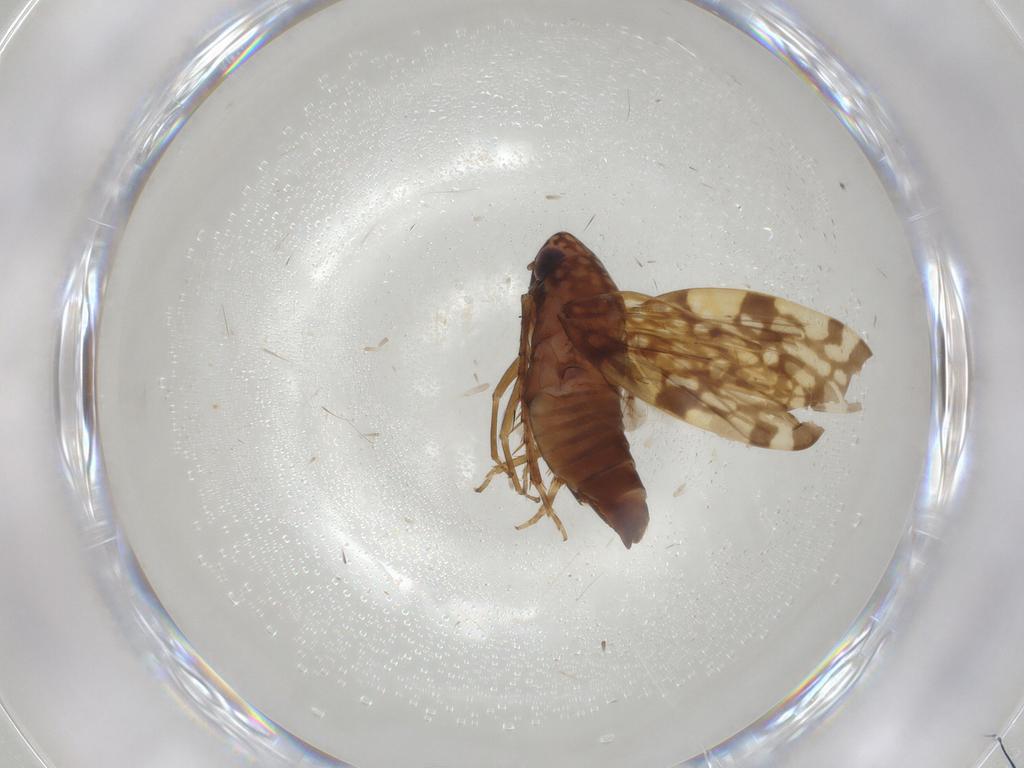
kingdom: Animalia
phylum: Arthropoda
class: Insecta
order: Hemiptera
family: Cicadellidae
